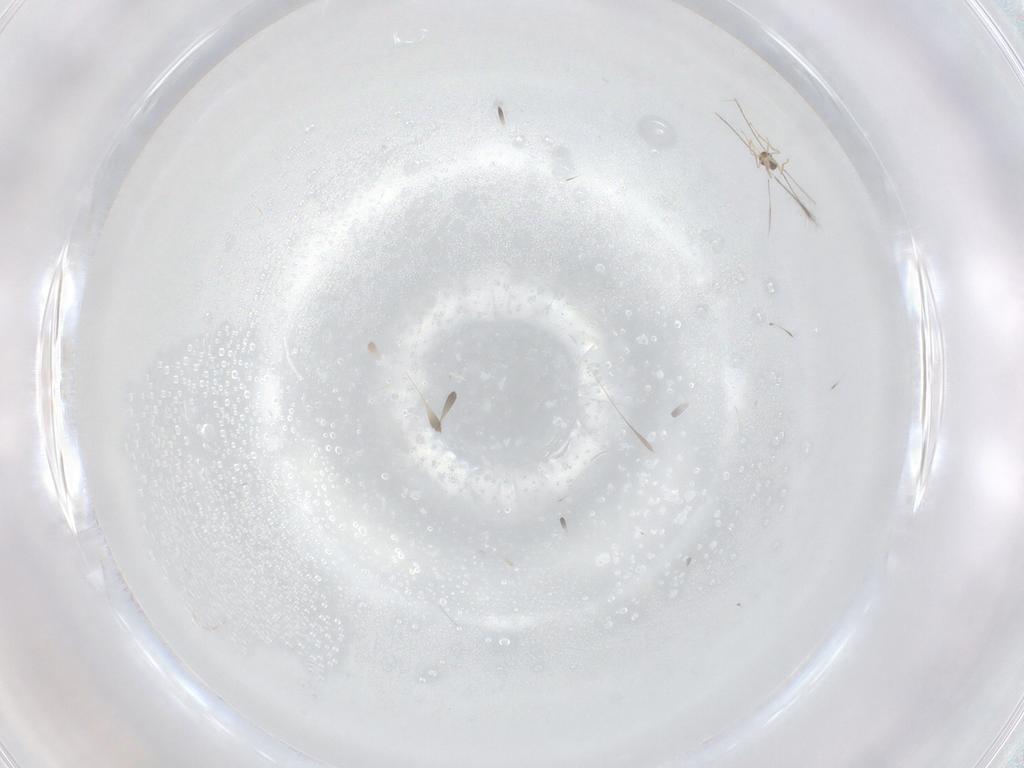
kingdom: Animalia
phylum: Arthropoda
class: Insecta
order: Hymenoptera
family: Mymaridae
